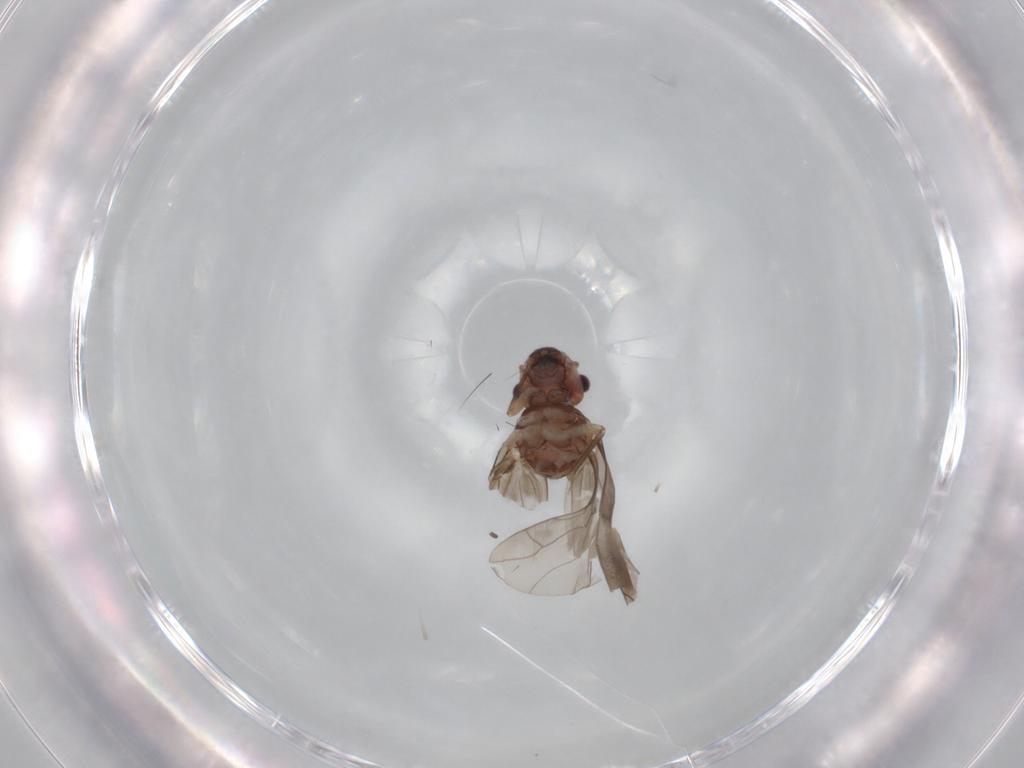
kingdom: Animalia
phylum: Arthropoda
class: Insecta
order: Psocodea
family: Peripsocidae
